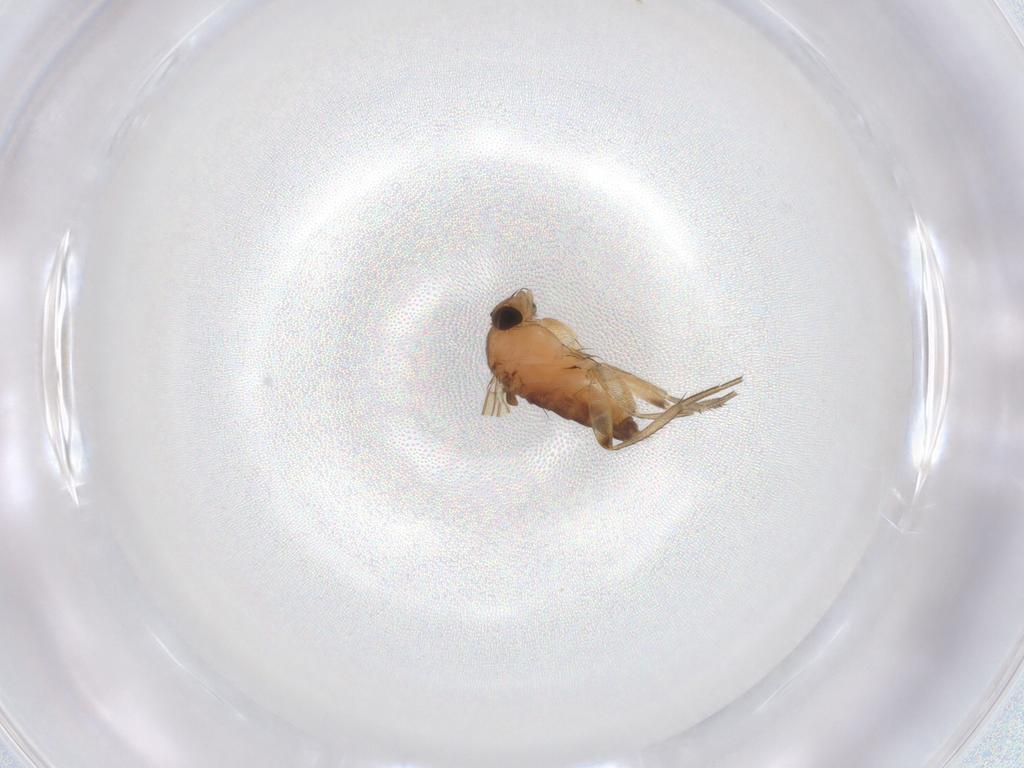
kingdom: Animalia
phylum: Arthropoda
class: Insecta
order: Diptera
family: Phoridae
